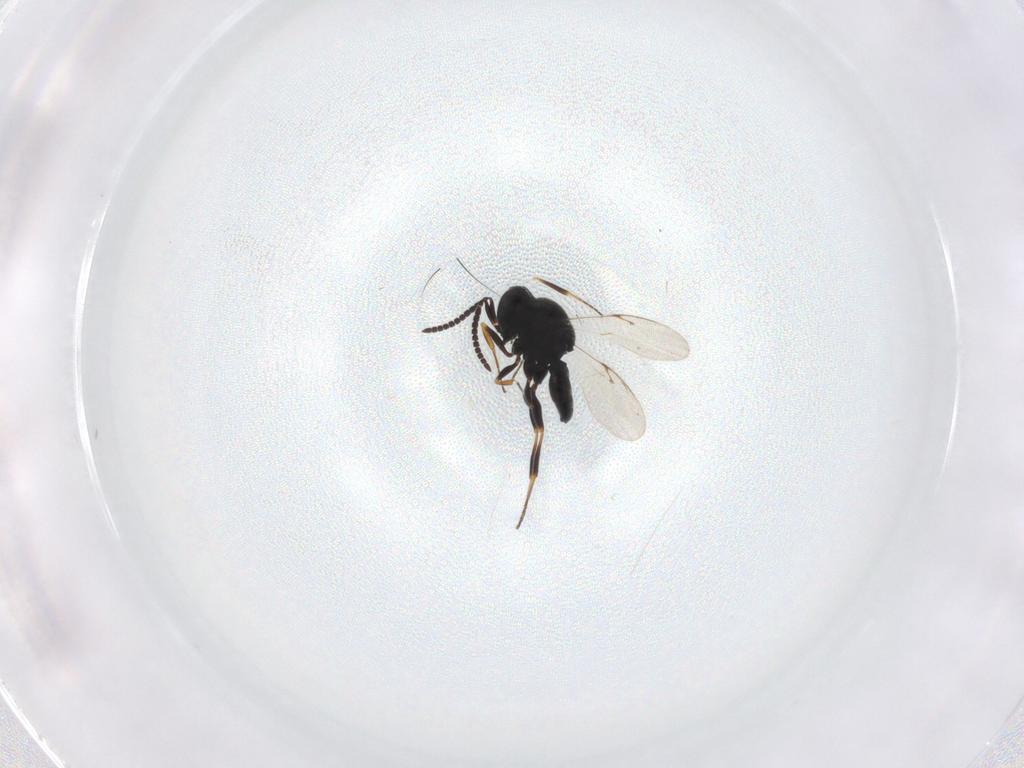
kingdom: Animalia
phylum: Arthropoda
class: Insecta
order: Hymenoptera
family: Scelionidae
